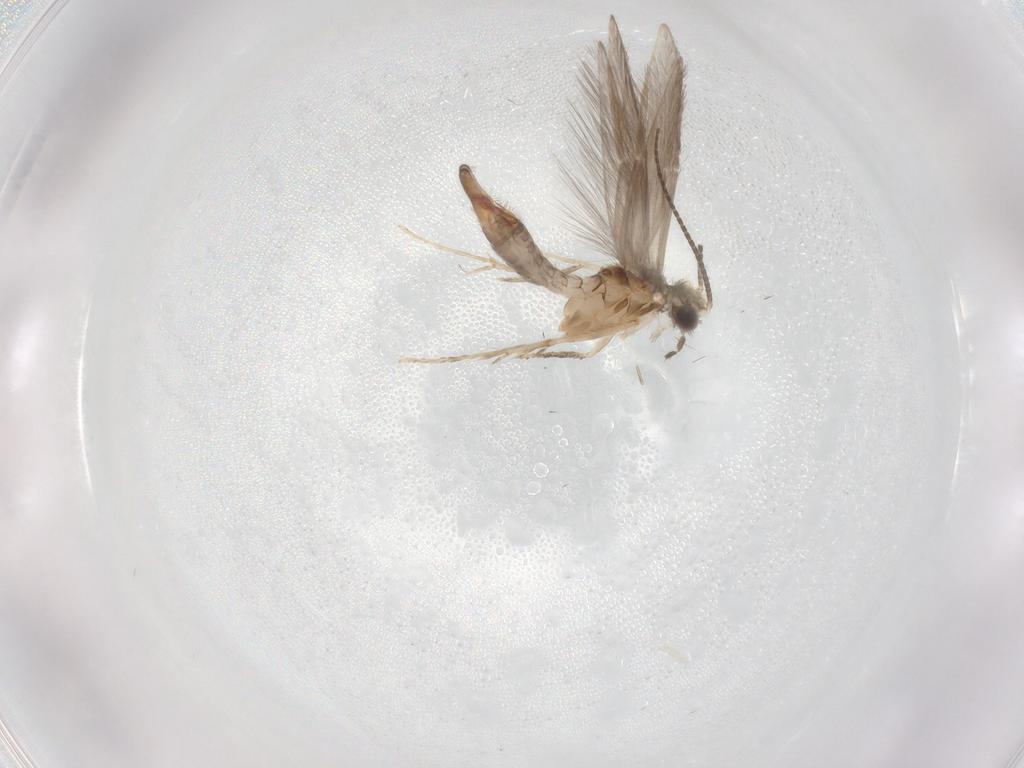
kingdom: Animalia
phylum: Arthropoda
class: Insecta
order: Trichoptera
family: Hydroptilidae
